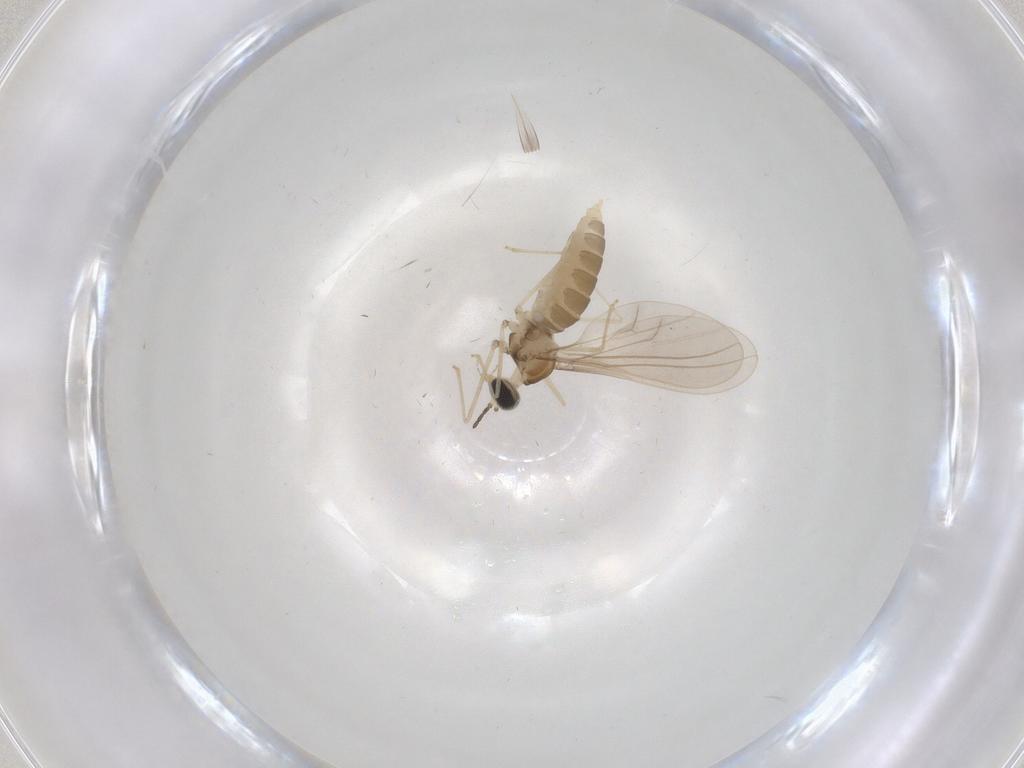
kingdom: Animalia
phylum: Arthropoda
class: Insecta
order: Diptera
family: Cecidomyiidae
